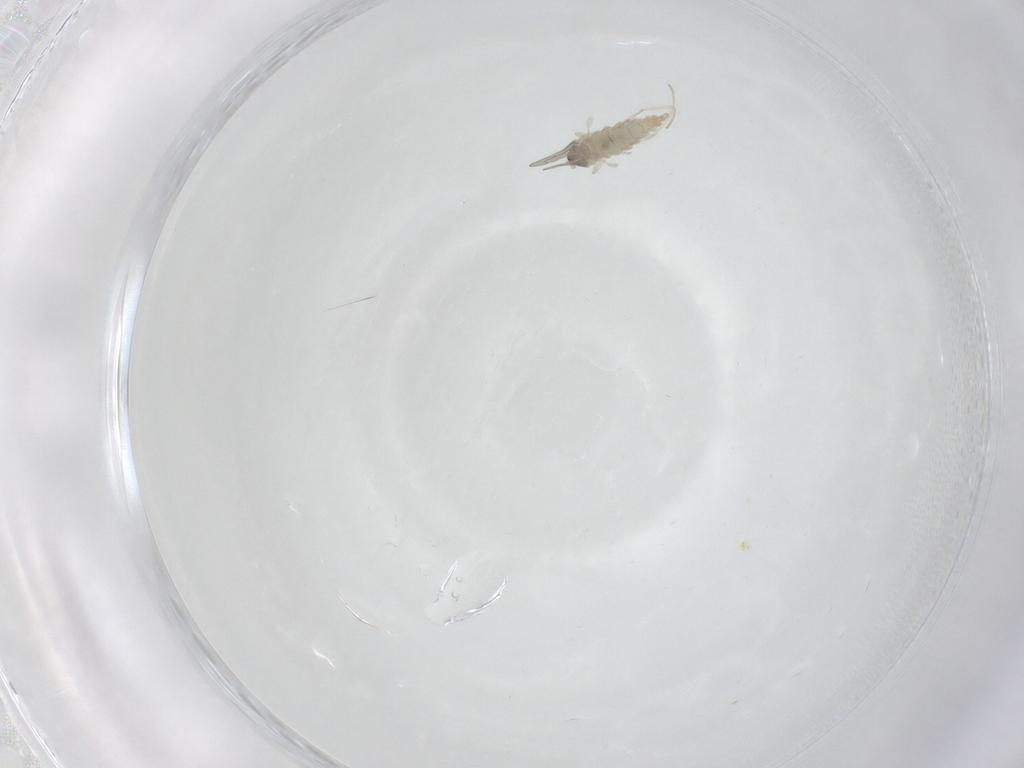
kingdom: Animalia
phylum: Arthropoda
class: Insecta
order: Diptera
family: Cecidomyiidae
